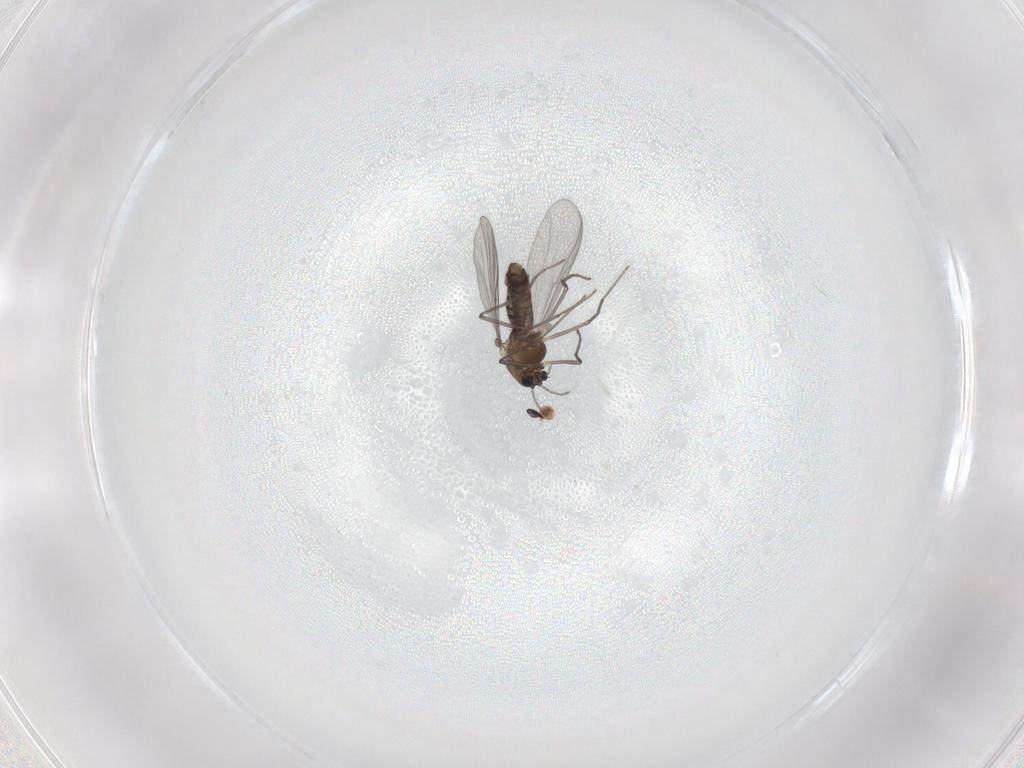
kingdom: Animalia
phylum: Arthropoda
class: Insecta
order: Diptera
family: Chironomidae
